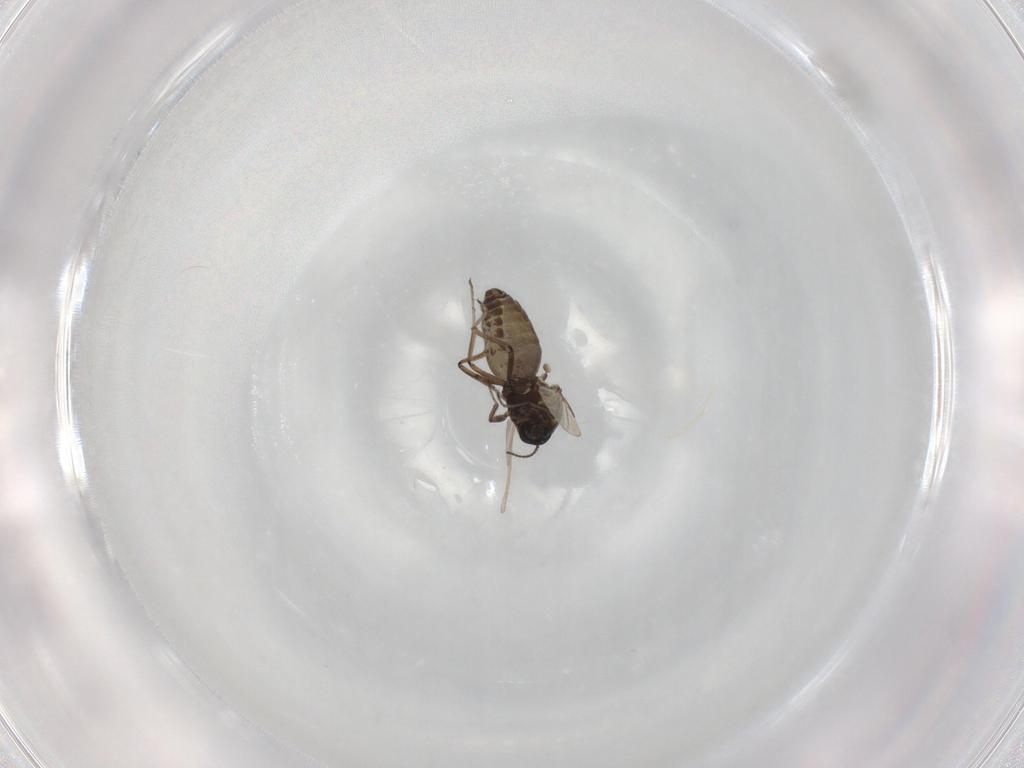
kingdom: Animalia
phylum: Arthropoda
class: Insecta
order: Diptera
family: Ceratopogonidae
